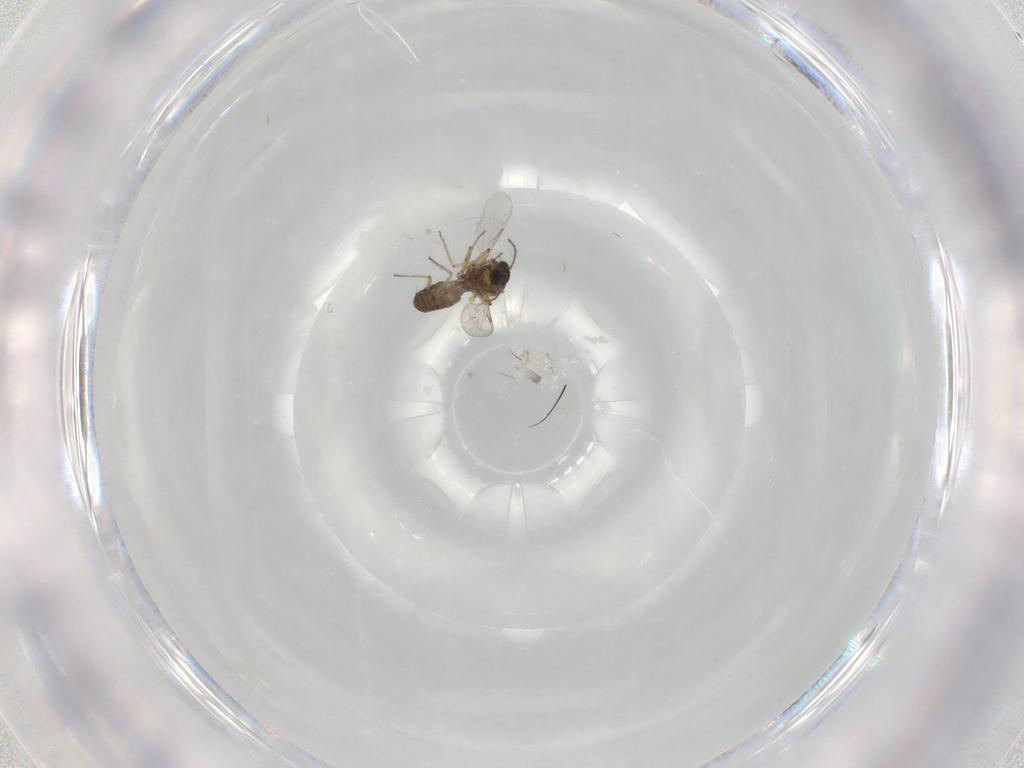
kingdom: Animalia
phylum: Arthropoda
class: Insecta
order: Diptera
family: Ceratopogonidae
